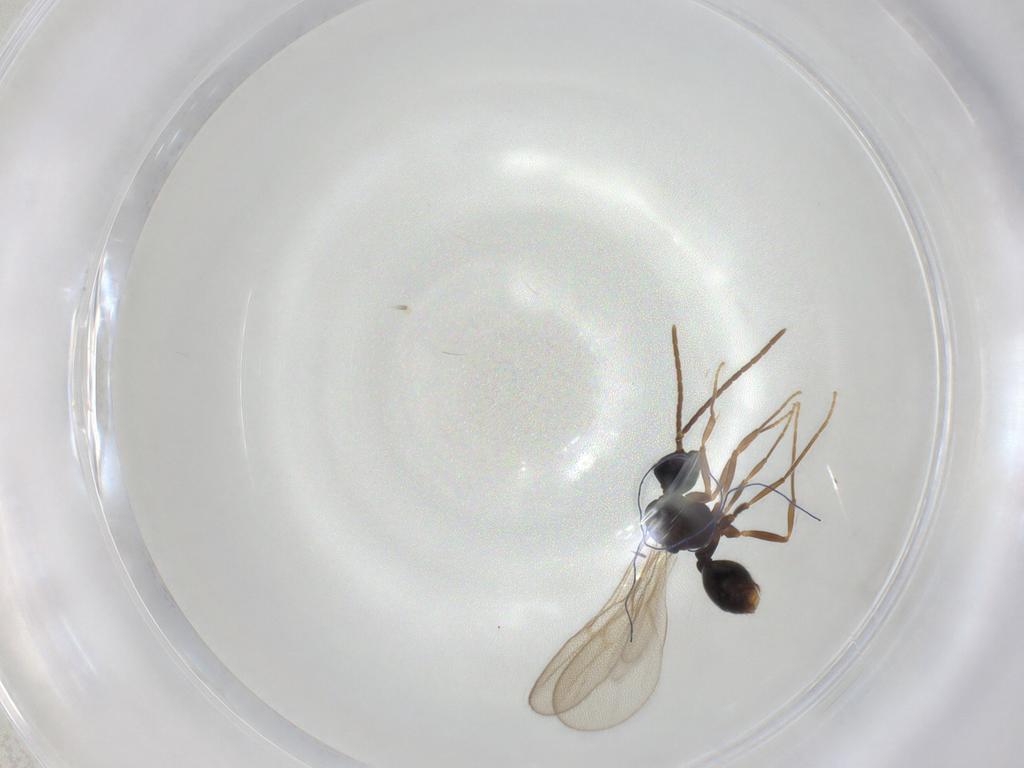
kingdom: Animalia
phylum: Arthropoda
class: Insecta
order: Hymenoptera
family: Formicidae
